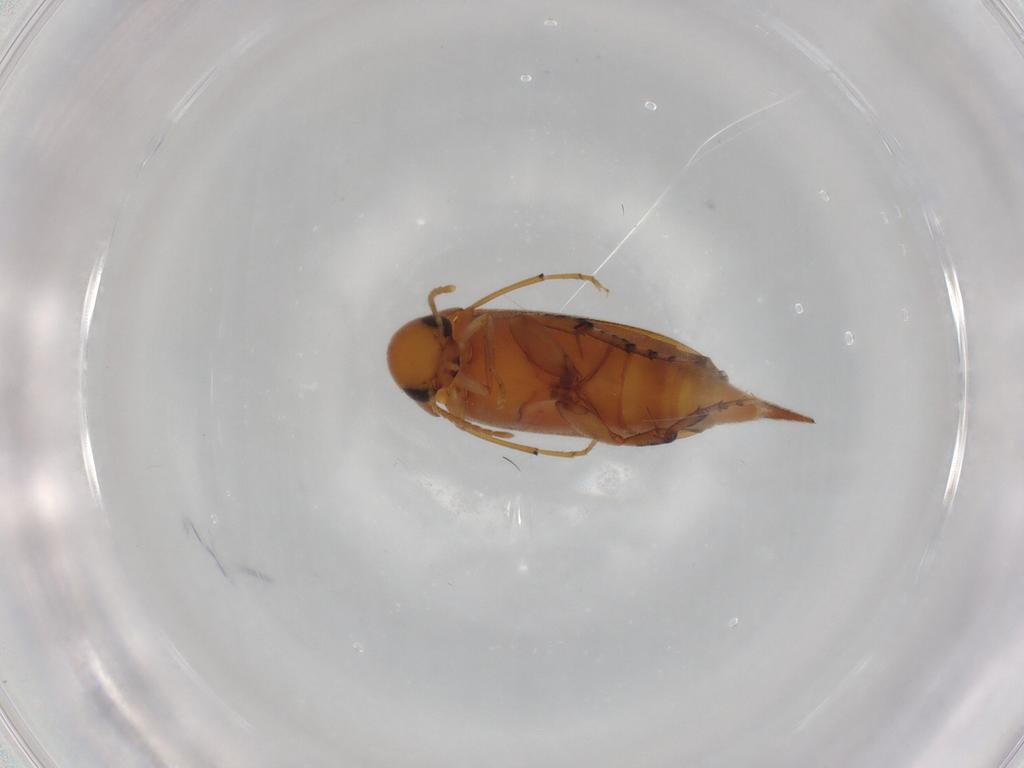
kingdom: Animalia
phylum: Arthropoda
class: Insecta
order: Coleoptera
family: Mordellidae
